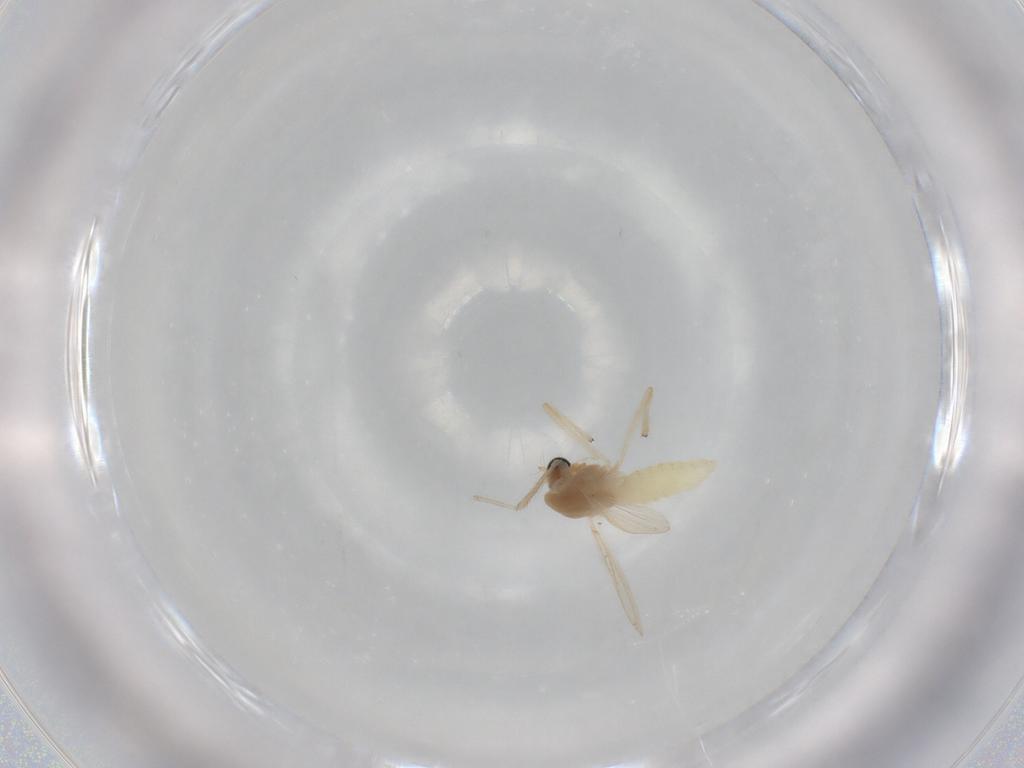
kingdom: Animalia
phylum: Arthropoda
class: Insecta
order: Diptera
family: Chironomidae
